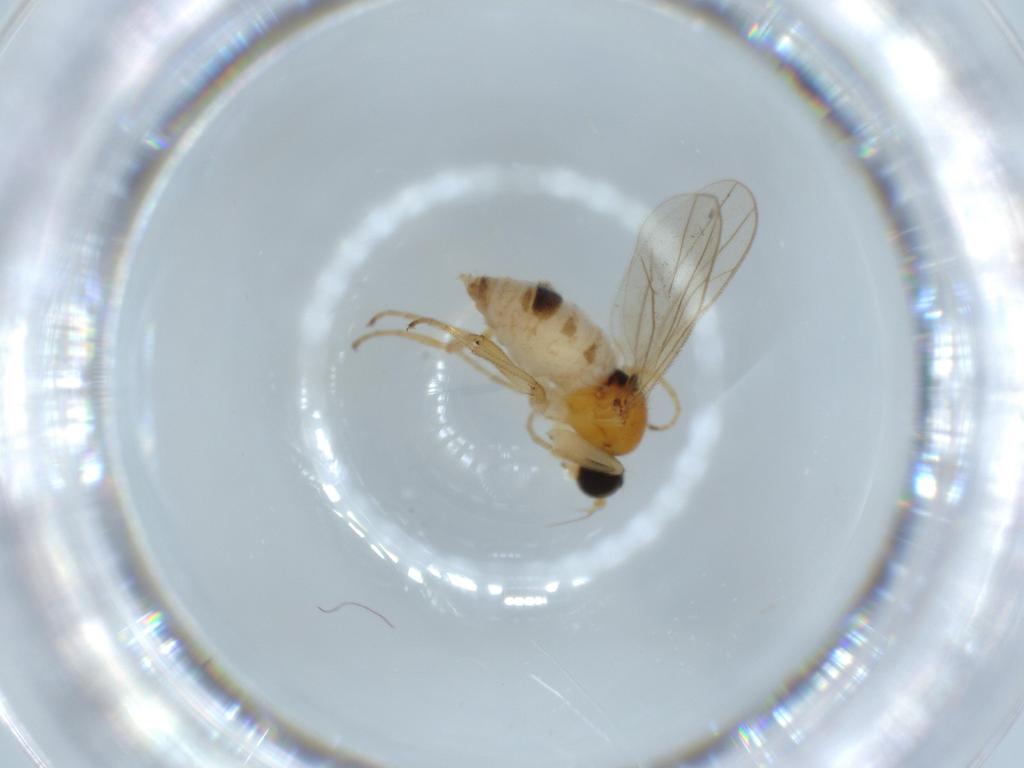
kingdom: Animalia
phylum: Arthropoda
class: Insecta
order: Diptera
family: Hybotidae
